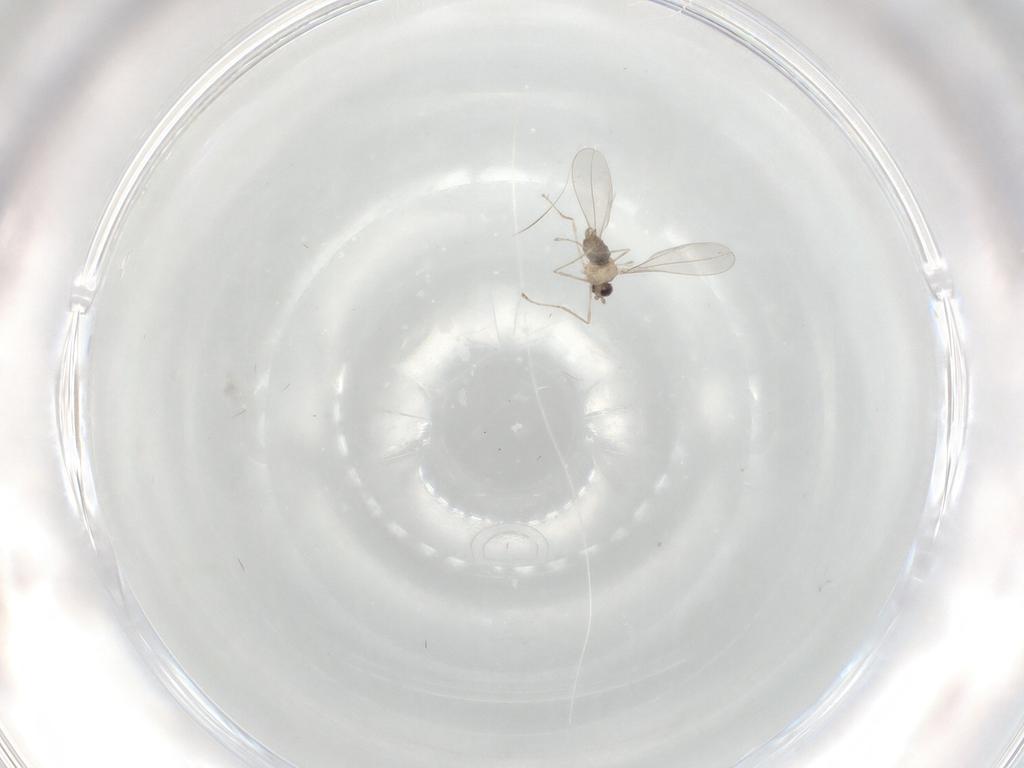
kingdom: Animalia
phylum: Arthropoda
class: Insecta
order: Diptera
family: Cecidomyiidae
